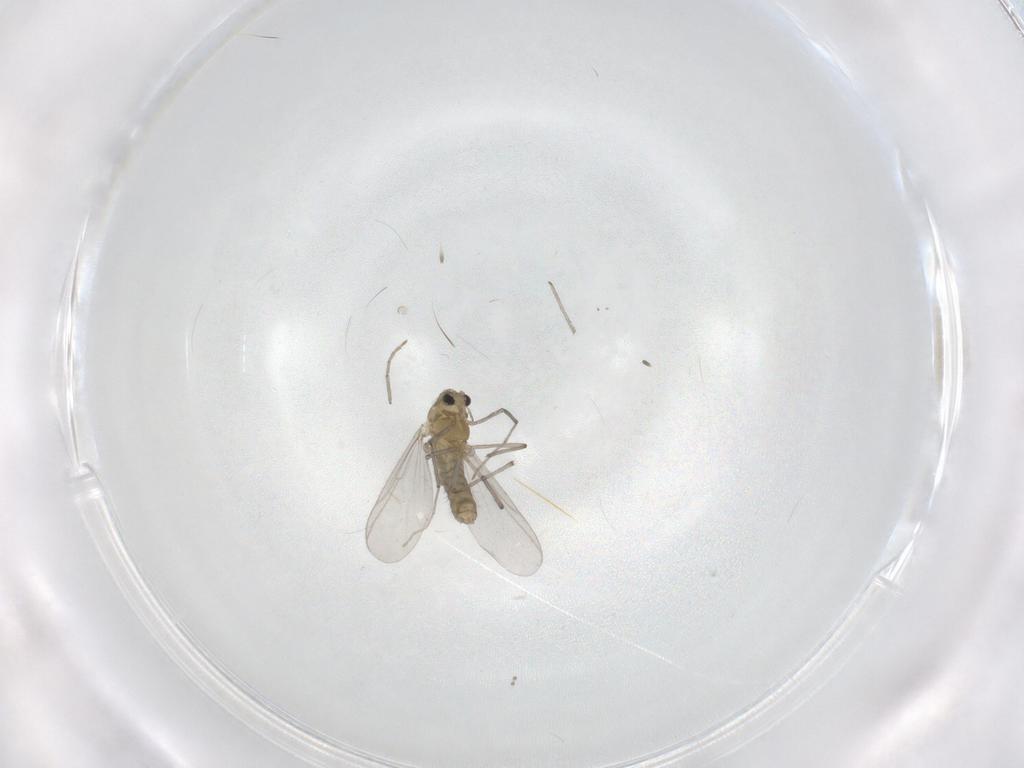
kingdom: Animalia
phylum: Arthropoda
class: Insecta
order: Diptera
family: Chironomidae
